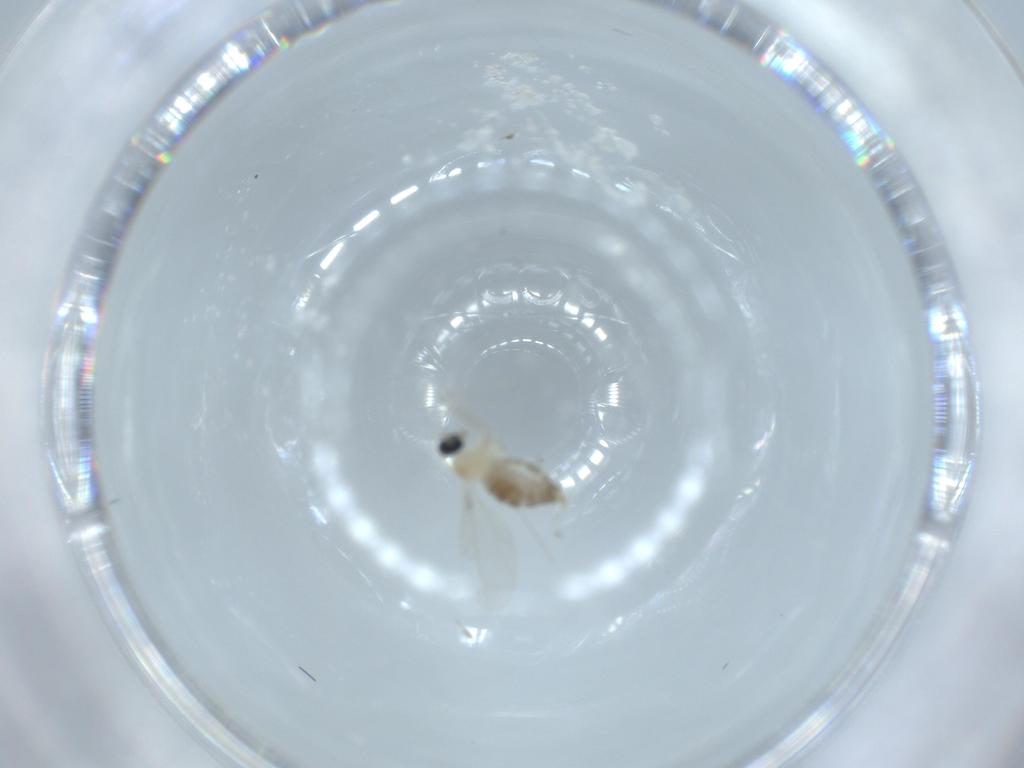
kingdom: Animalia
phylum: Arthropoda
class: Insecta
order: Diptera
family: Cecidomyiidae
